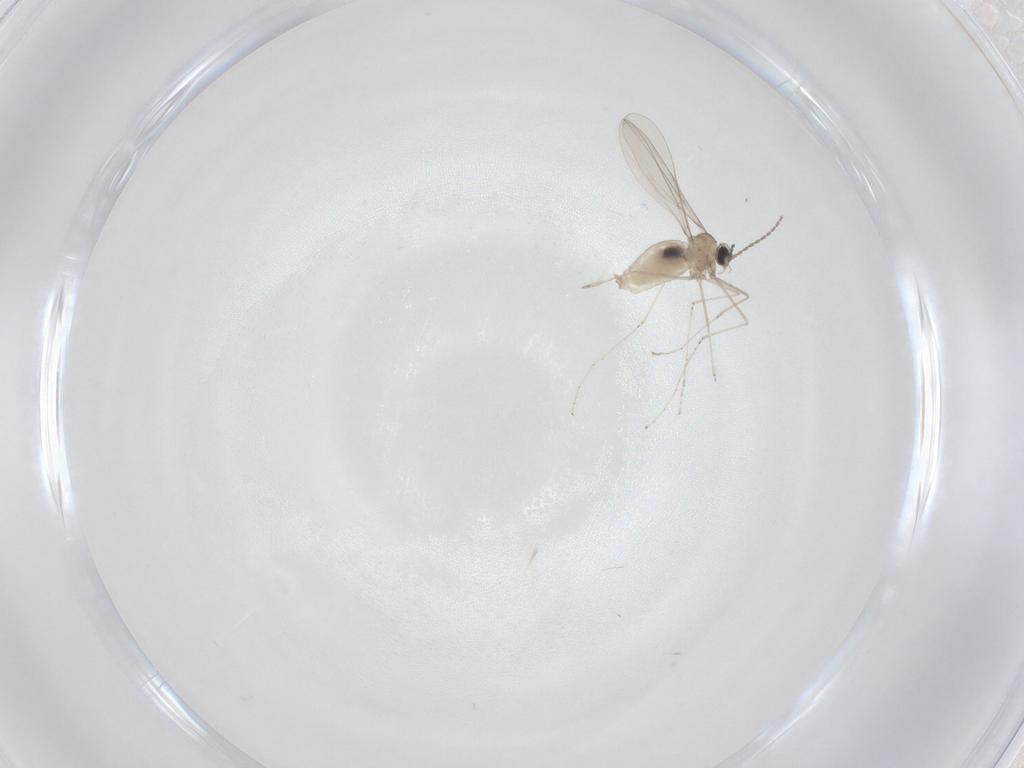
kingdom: Animalia
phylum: Arthropoda
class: Insecta
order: Diptera
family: Cecidomyiidae
